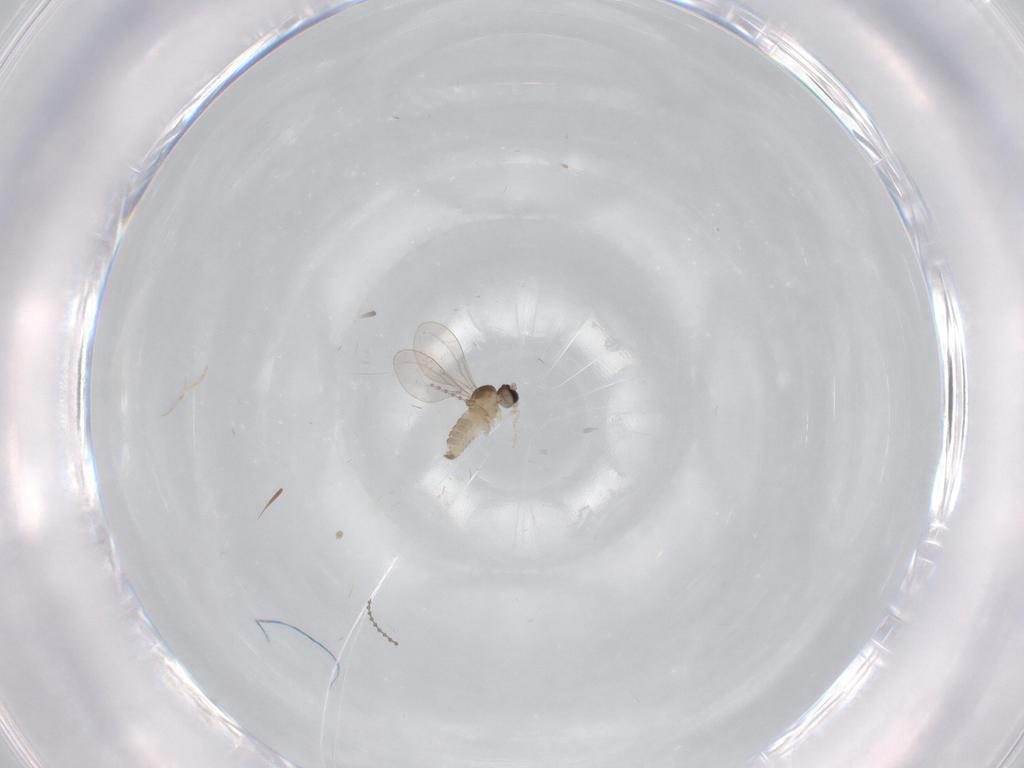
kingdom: Animalia
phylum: Arthropoda
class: Insecta
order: Diptera
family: Cecidomyiidae
